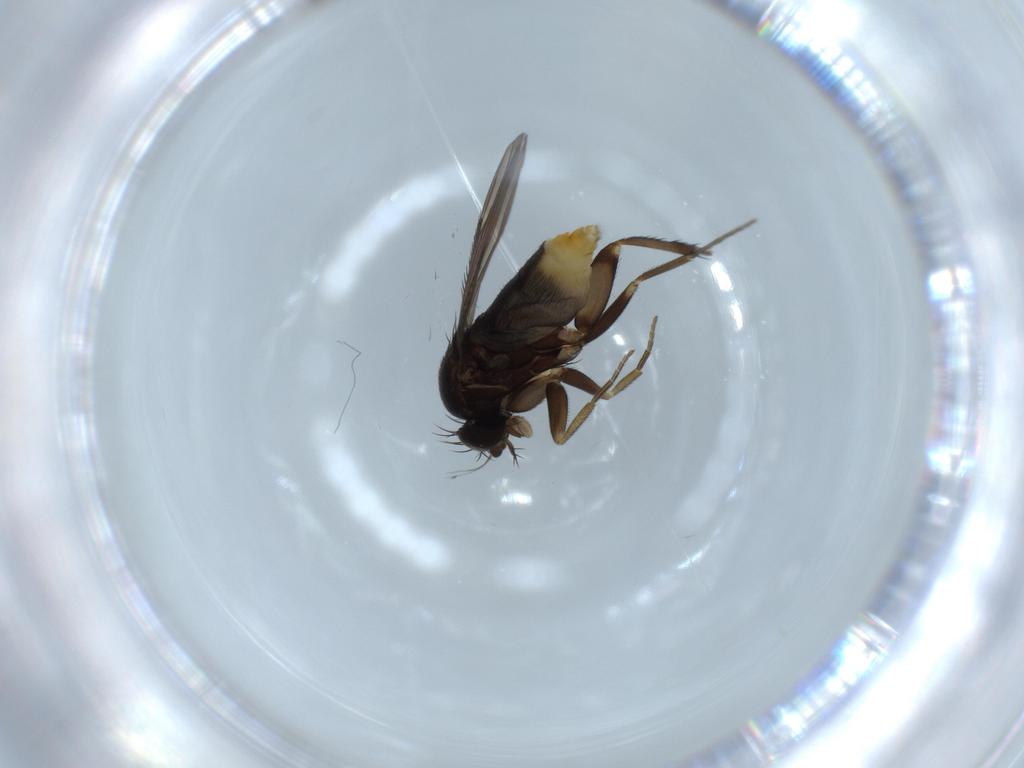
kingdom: Animalia
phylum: Arthropoda
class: Insecta
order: Diptera
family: Phoridae
